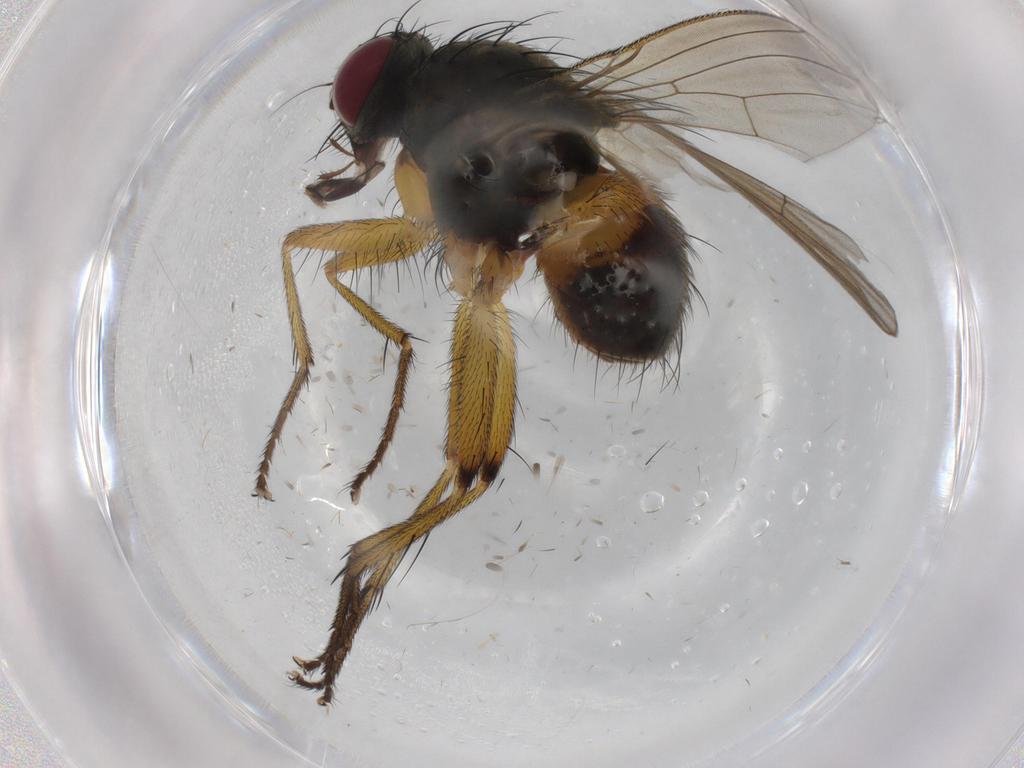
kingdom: Animalia
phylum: Arthropoda
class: Insecta
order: Diptera
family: Muscidae
